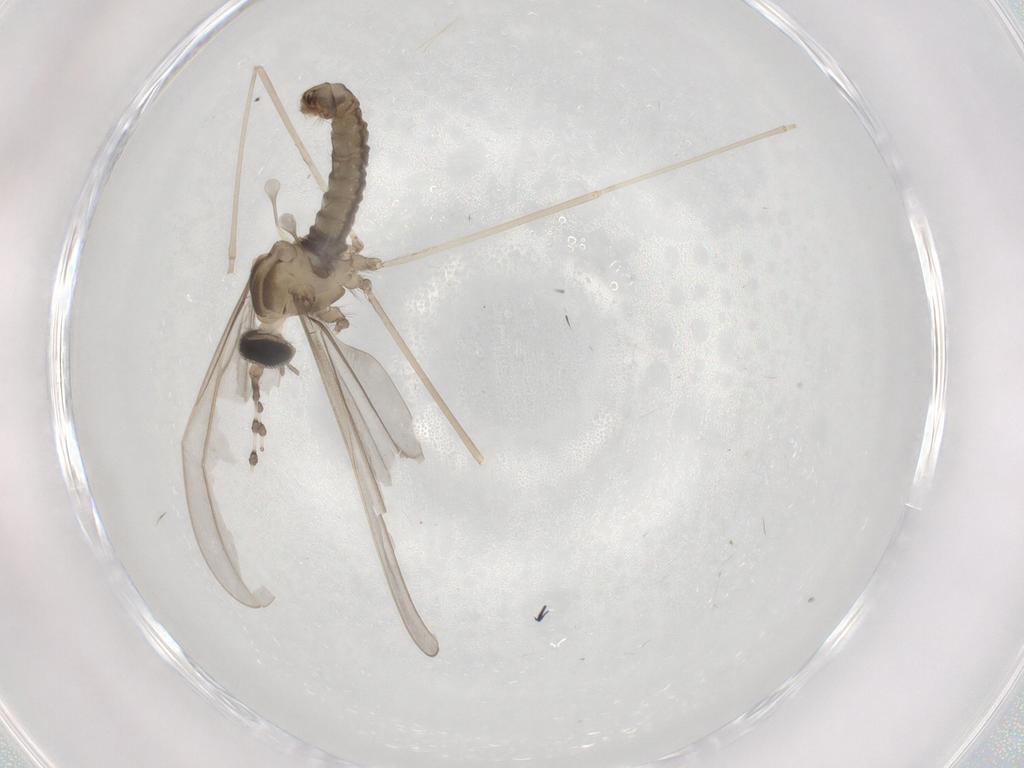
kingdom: Animalia
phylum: Arthropoda
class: Insecta
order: Diptera
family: Cecidomyiidae
